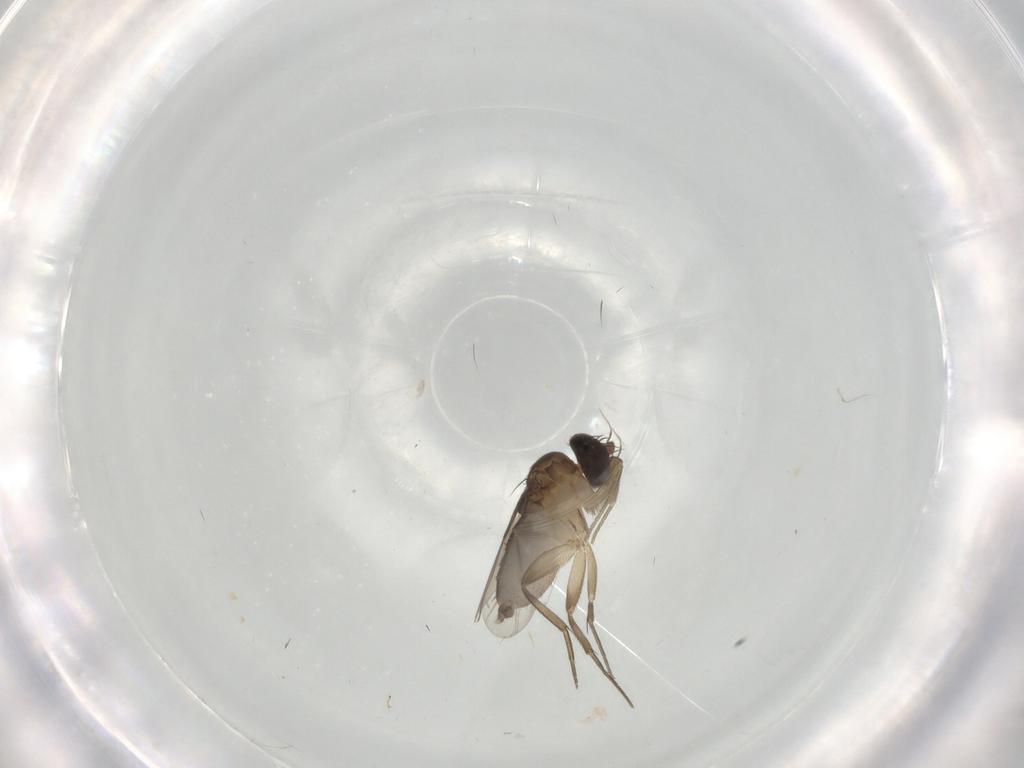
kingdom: Animalia
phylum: Arthropoda
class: Insecta
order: Diptera
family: Phoridae
